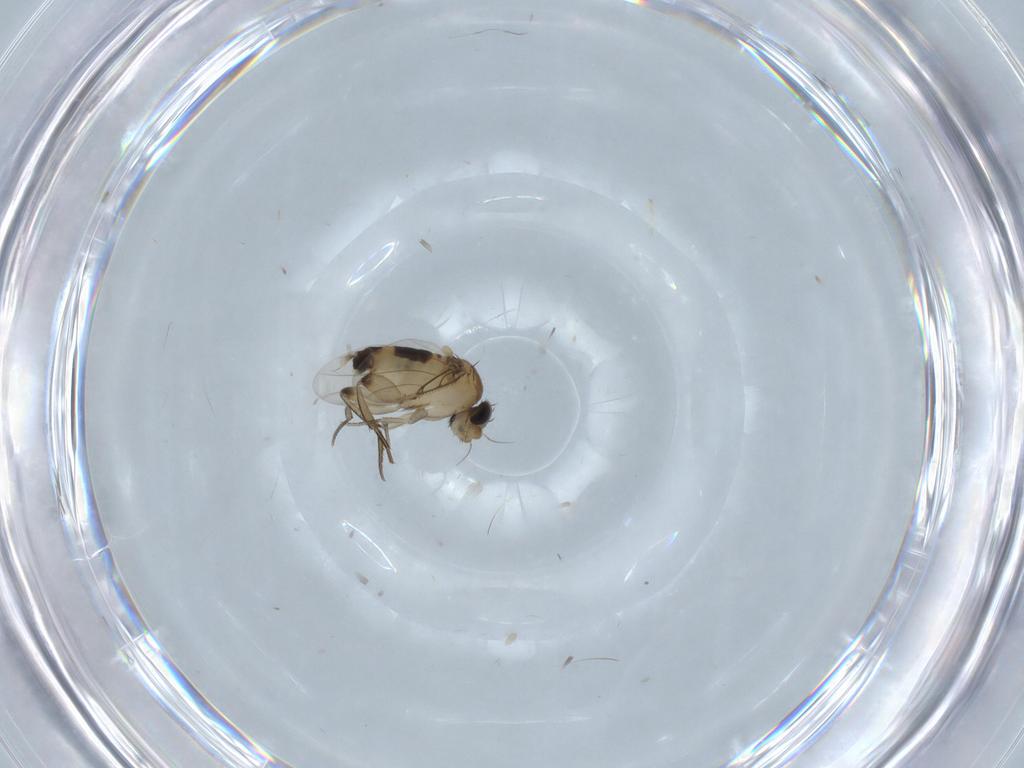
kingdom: Animalia
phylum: Arthropoda
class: Insecta
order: Diptera
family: Phoridae
